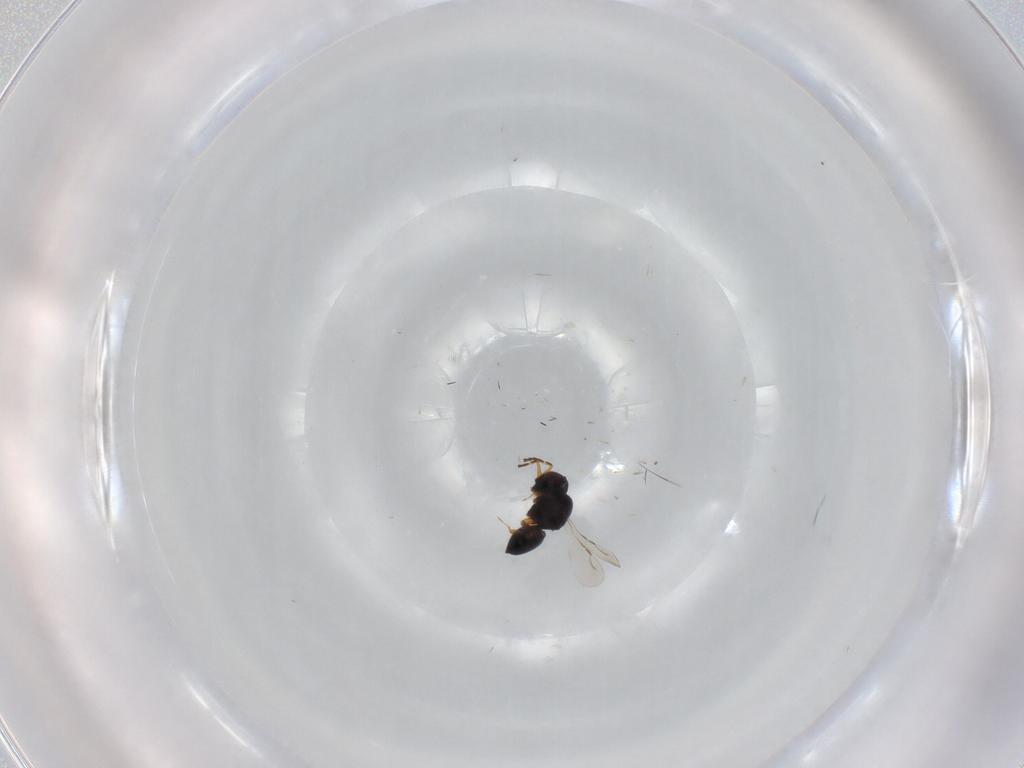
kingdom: Animalia
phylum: Arthropoda
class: Insecta
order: Hymenoptera
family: Ceraphronidae
